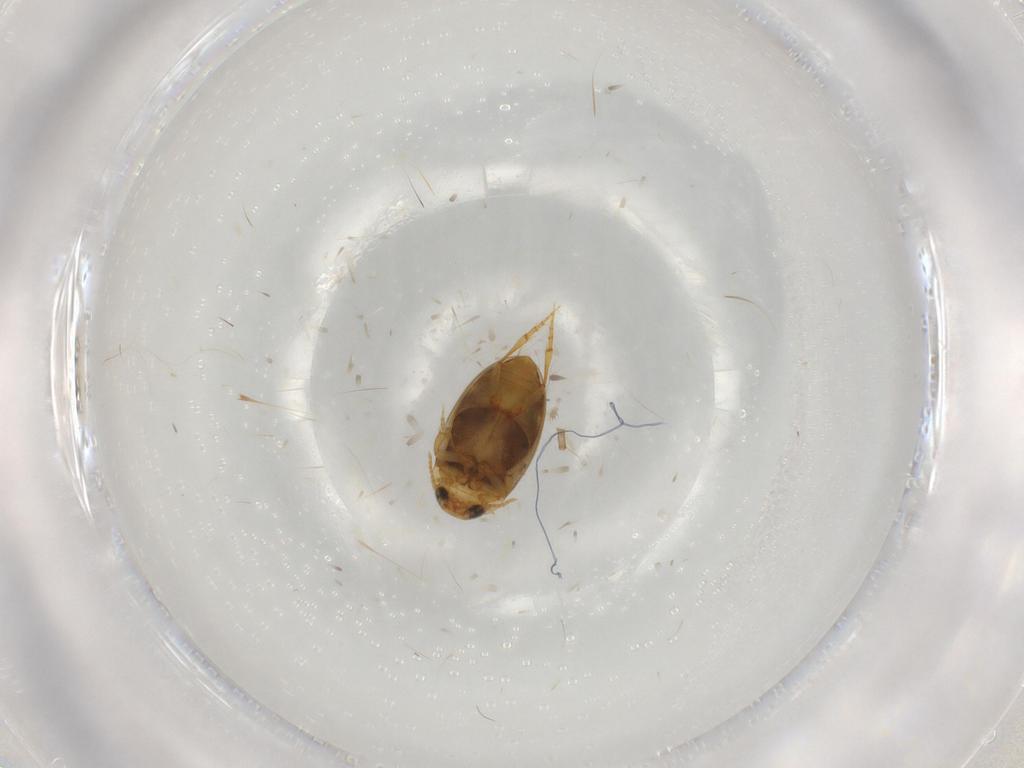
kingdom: Animalia
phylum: Arthropoda
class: Insecta
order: Coleoptera
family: Dytiscidae
